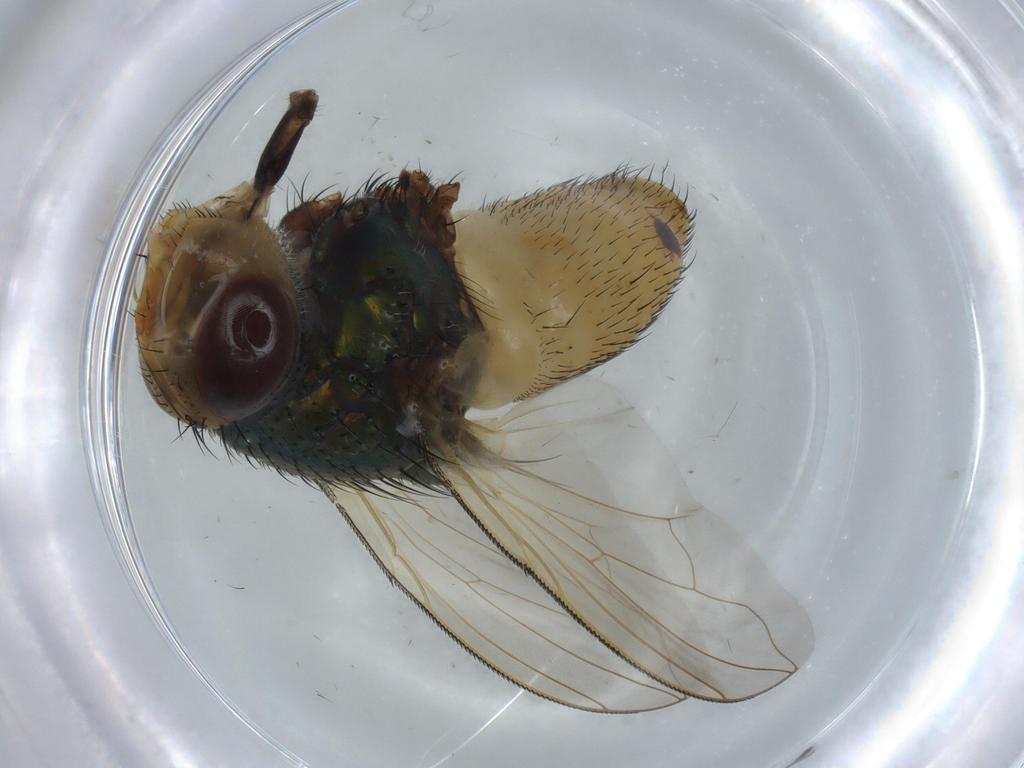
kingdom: Animalia
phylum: Arthropoda
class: Insecta
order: Diptera
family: Calliphoridae
